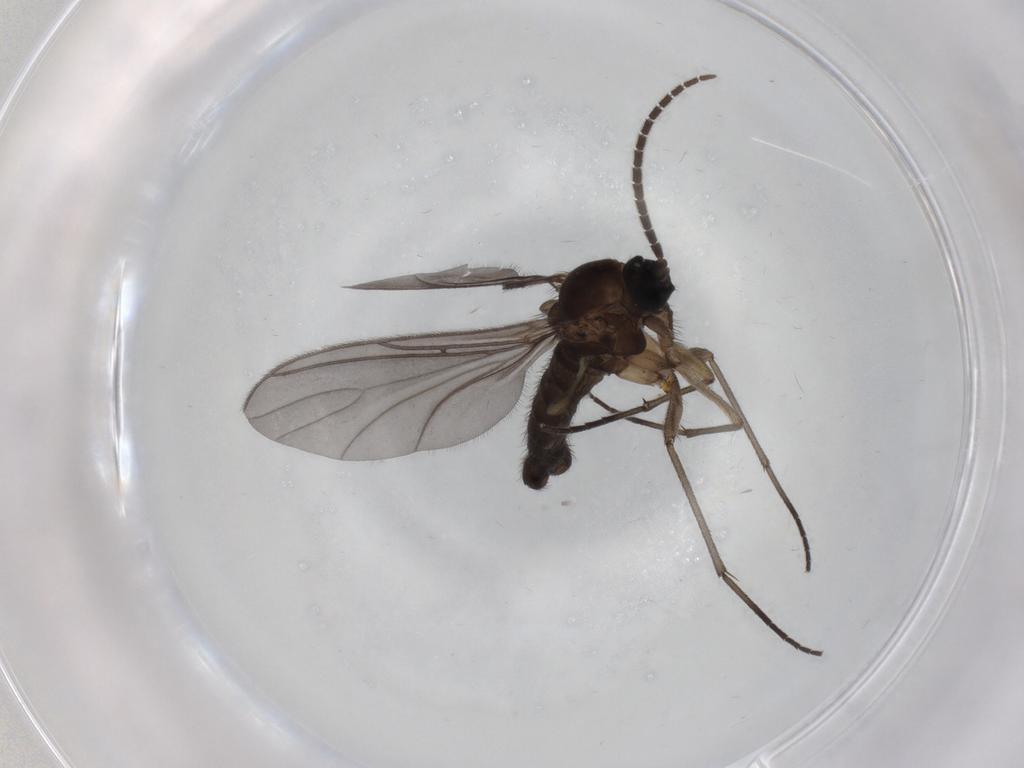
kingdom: Animalia
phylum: Arthropoda
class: Insecta
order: Diptera
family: Sciaridae
